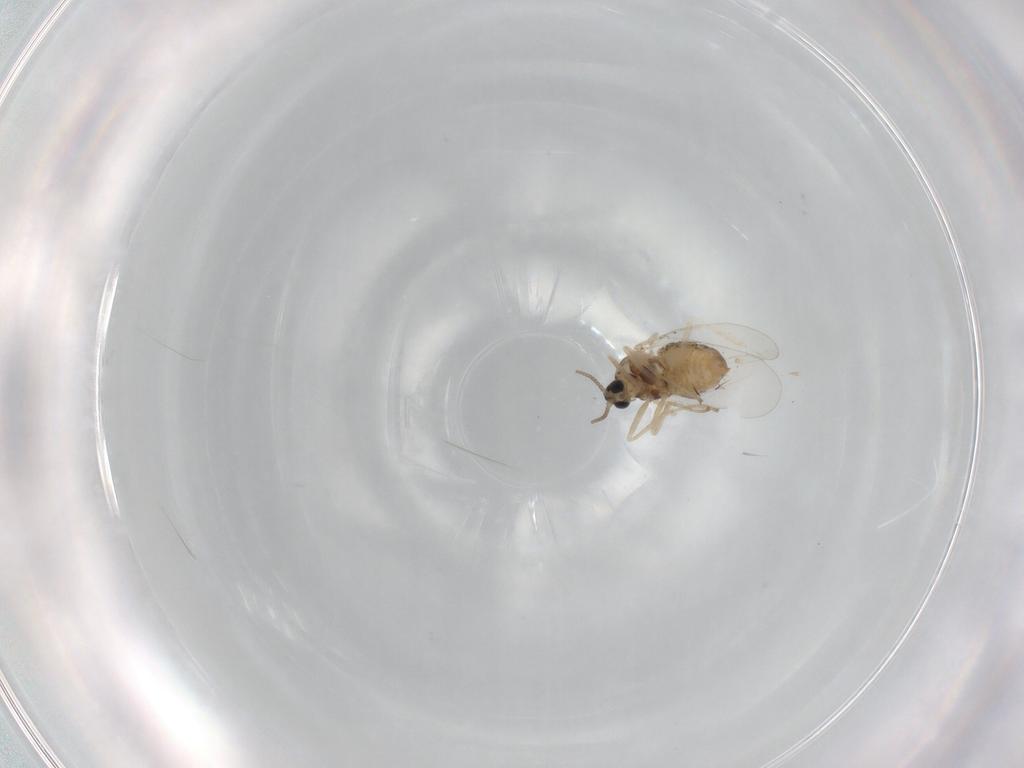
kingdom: Animalia
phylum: Arthropoda
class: Insecta
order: Diptera
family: Cecidomyiidae
